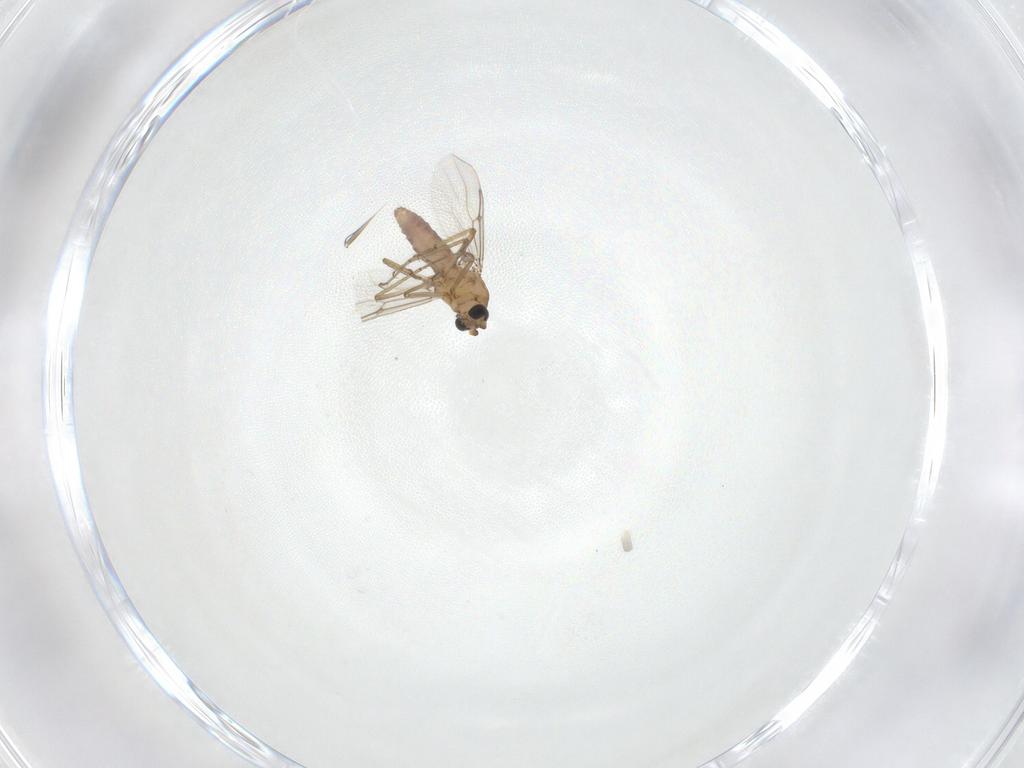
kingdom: Animalia
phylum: Arthropoda
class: Insecta
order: Diptera
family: Ceratopogonidae
